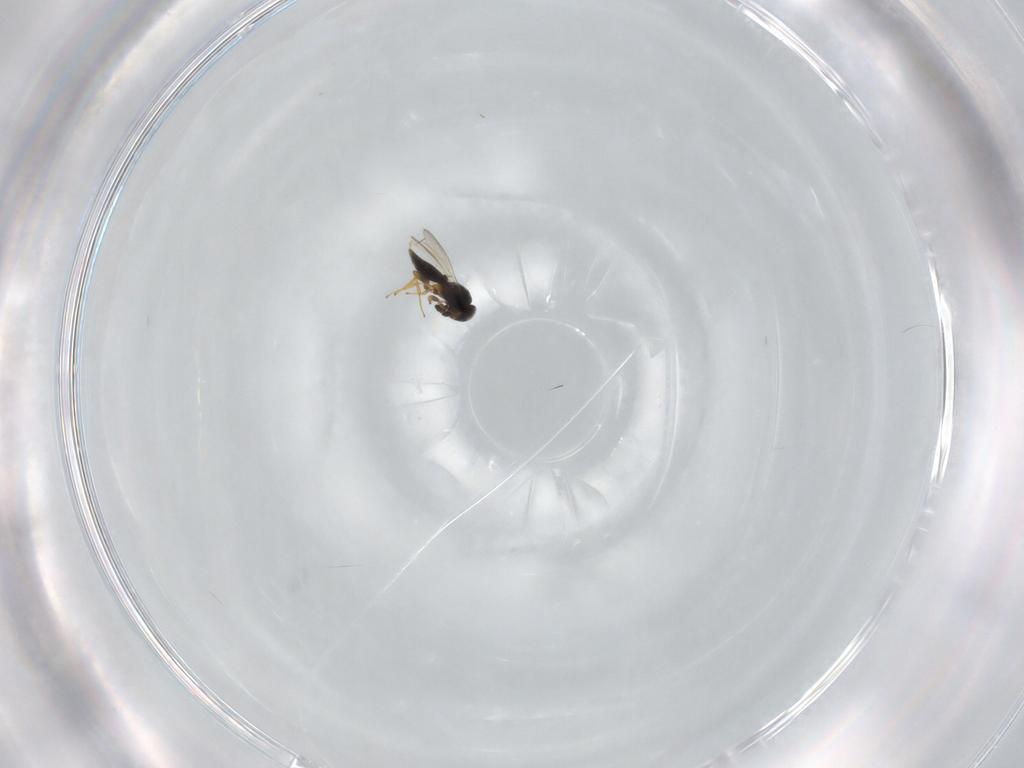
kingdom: Animalia
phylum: Arthropoda
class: Insecta
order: Hymenoptera
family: Platygastridae
